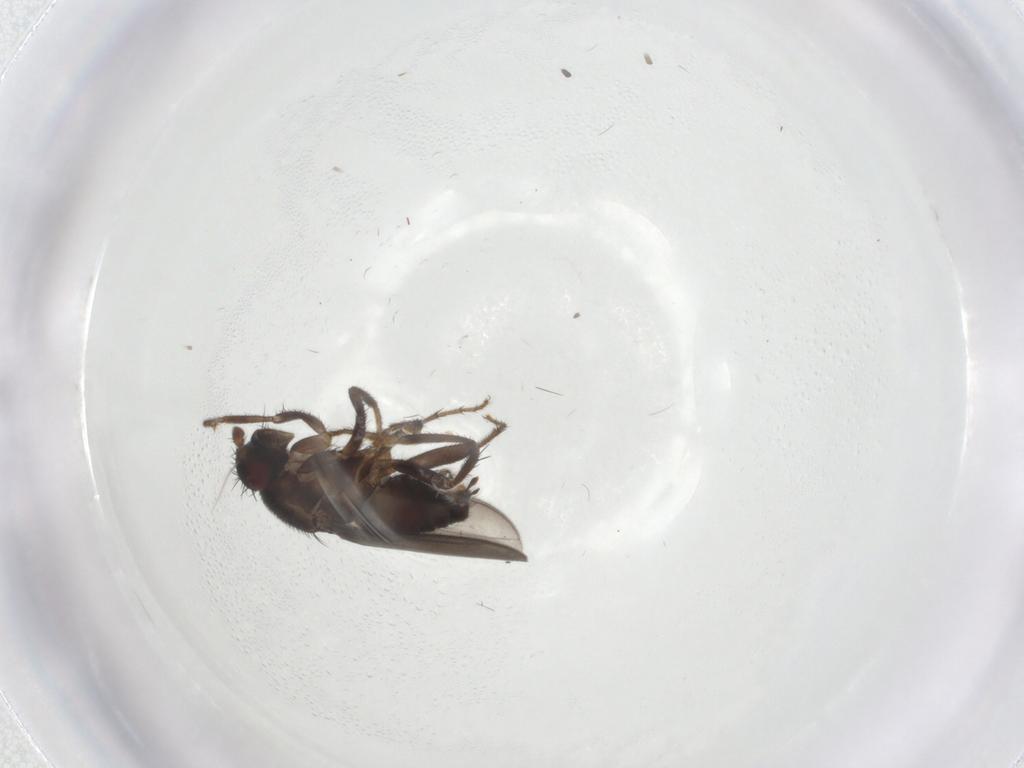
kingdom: Animalia
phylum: Arthropoda
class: Insecta
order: Diptera
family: Sphaeroceridae
